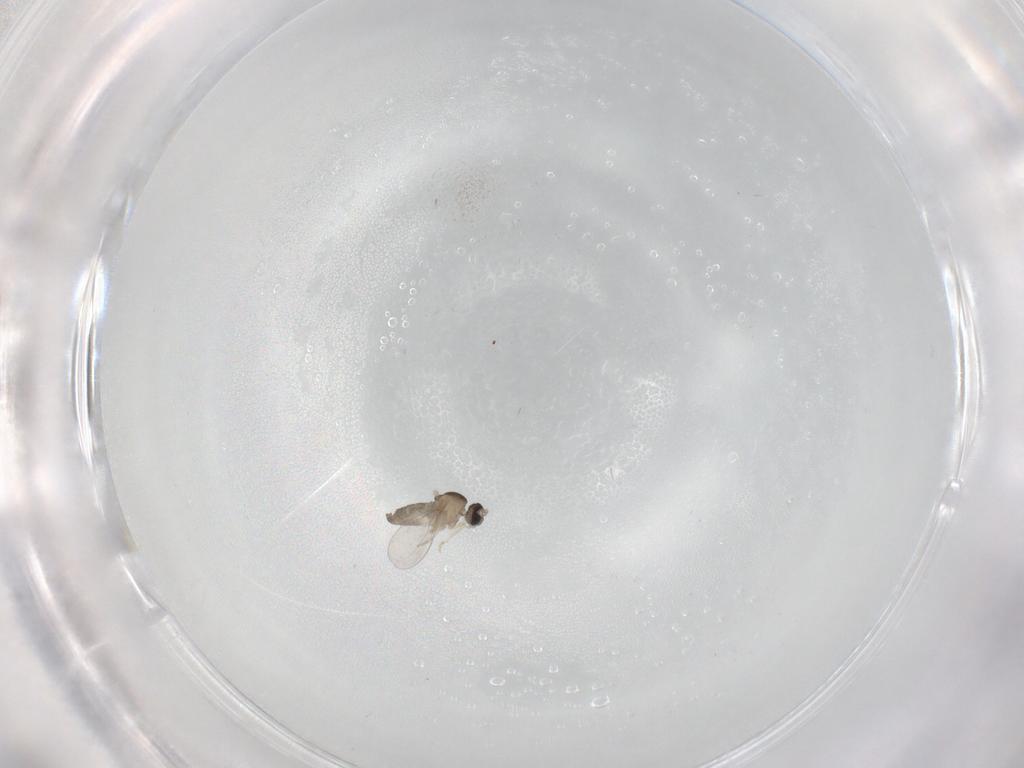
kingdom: Animalia
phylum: Arthropoda
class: Insecta
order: Diptera
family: Cecidomyiidae
